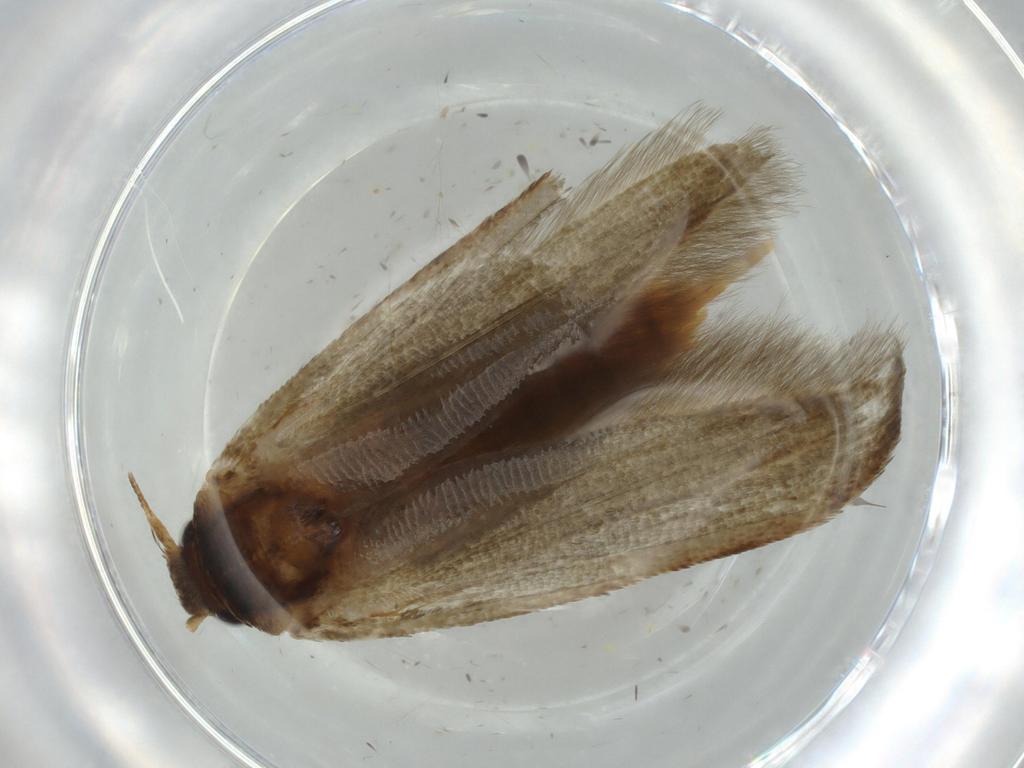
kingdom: Animalia
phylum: Arthropoda
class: Insecta
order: Lepidoptera
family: Blastobasidae
